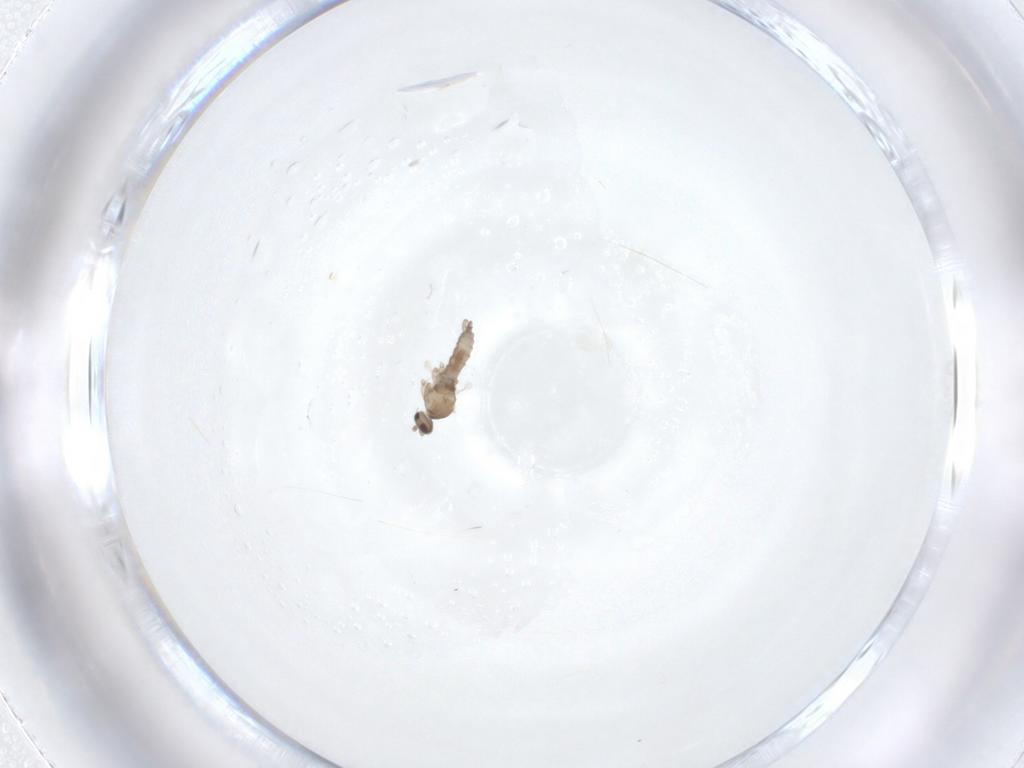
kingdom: Animalia
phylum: Arthropoda
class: Insecta
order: Diptera
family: Cecidomyiidae
